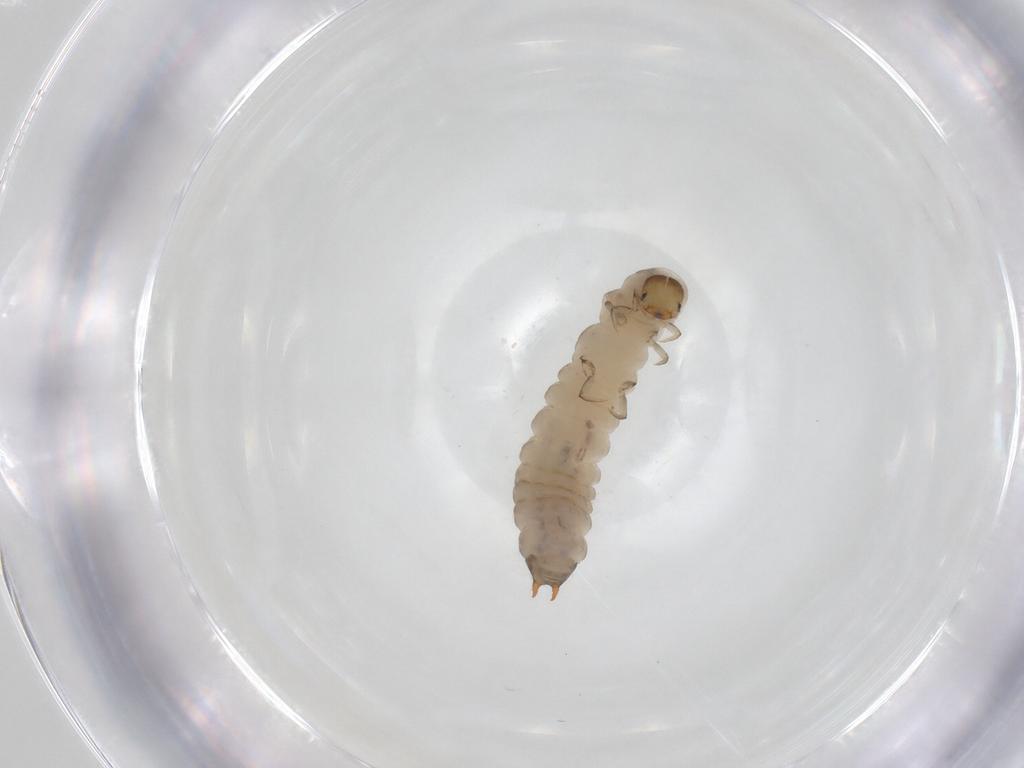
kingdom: Animalia
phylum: Arthropoda
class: Insecta
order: Coleoptera
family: Melyridae
